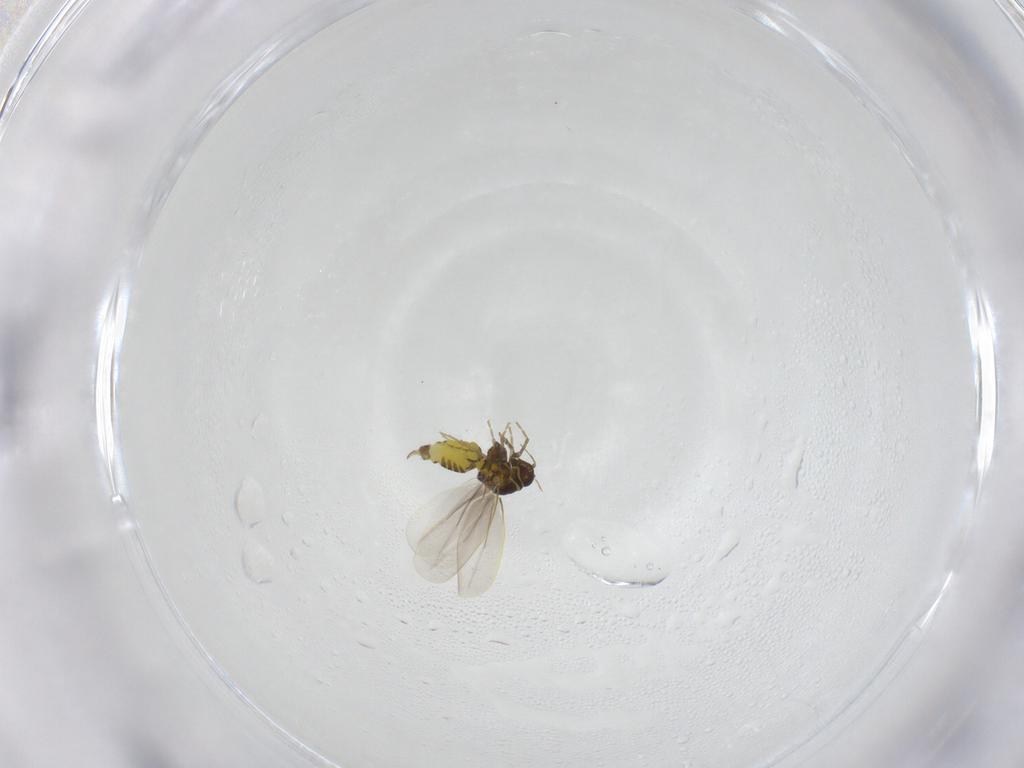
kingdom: Animalia
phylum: Arthropoda
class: Insecta
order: Hemiptera
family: Aleyrodidae
